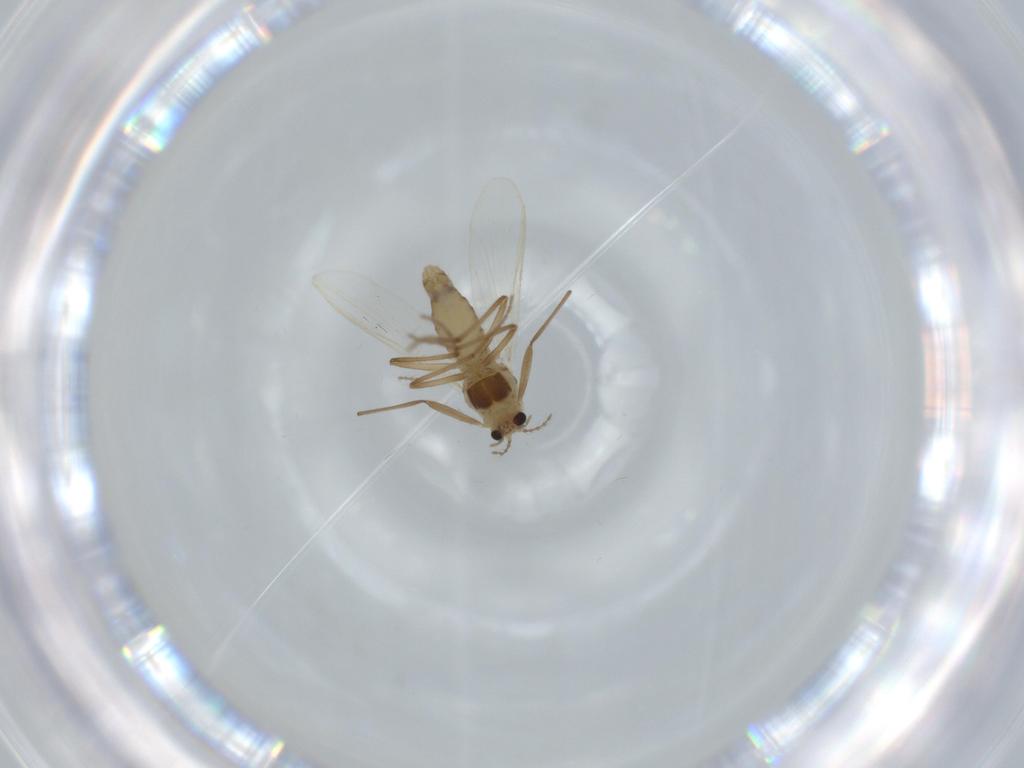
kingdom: Animalia
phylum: Arthropoda
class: Insecta
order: Diptera
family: Chironomidae
